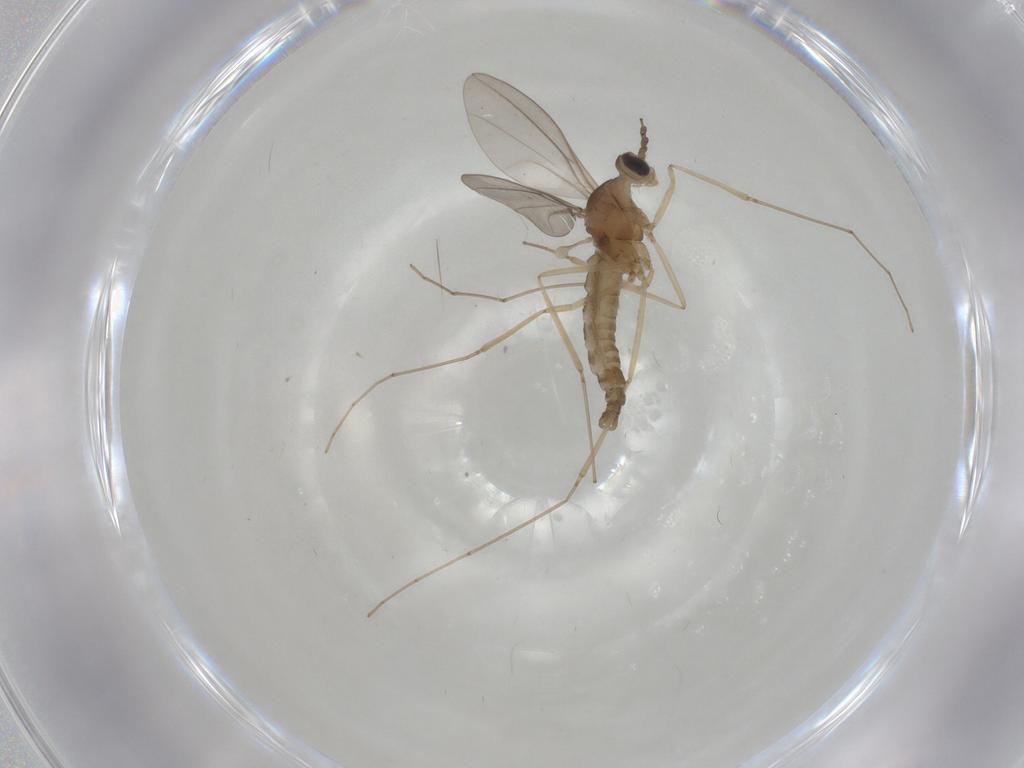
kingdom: Animalia
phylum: Arthropoda
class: Insecta
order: Diptera
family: Cecidomyiidae
